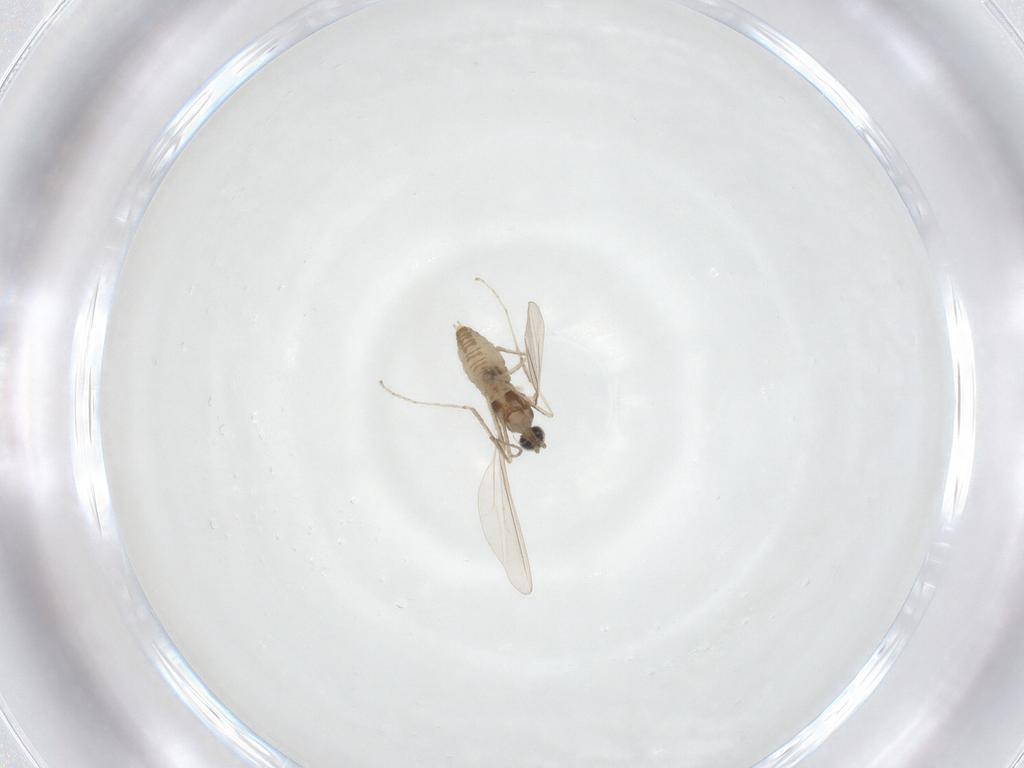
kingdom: Animalia
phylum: Arthropoda
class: Insecta
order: Diptera
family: Cecidomyiidae
